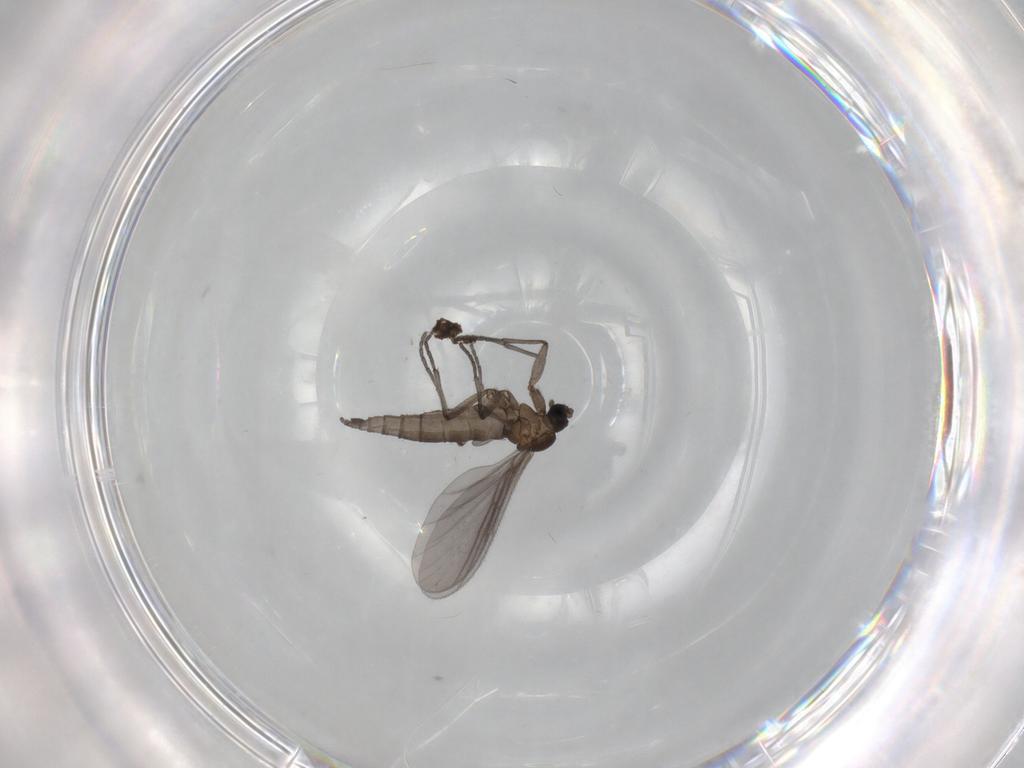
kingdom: Animalia
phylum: Arthropoda
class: Insecta
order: Diptera
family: Sciaridae
